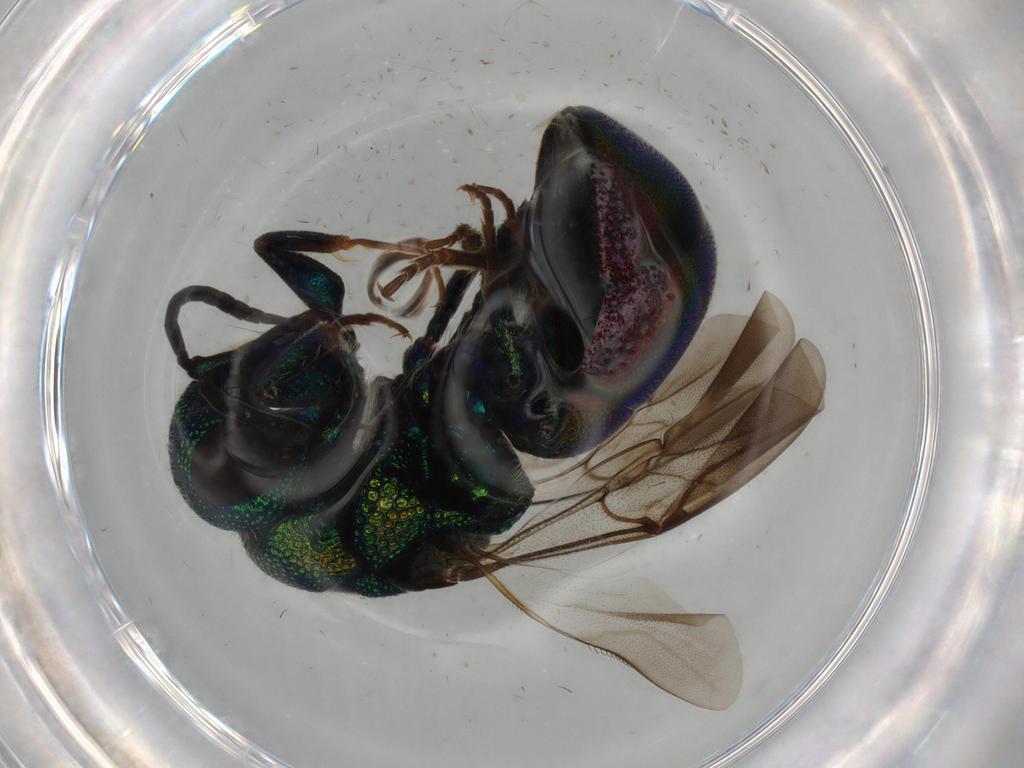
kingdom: Animalia
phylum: Arthropoda
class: Insecta
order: Hymenoptera
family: Chrysididae
